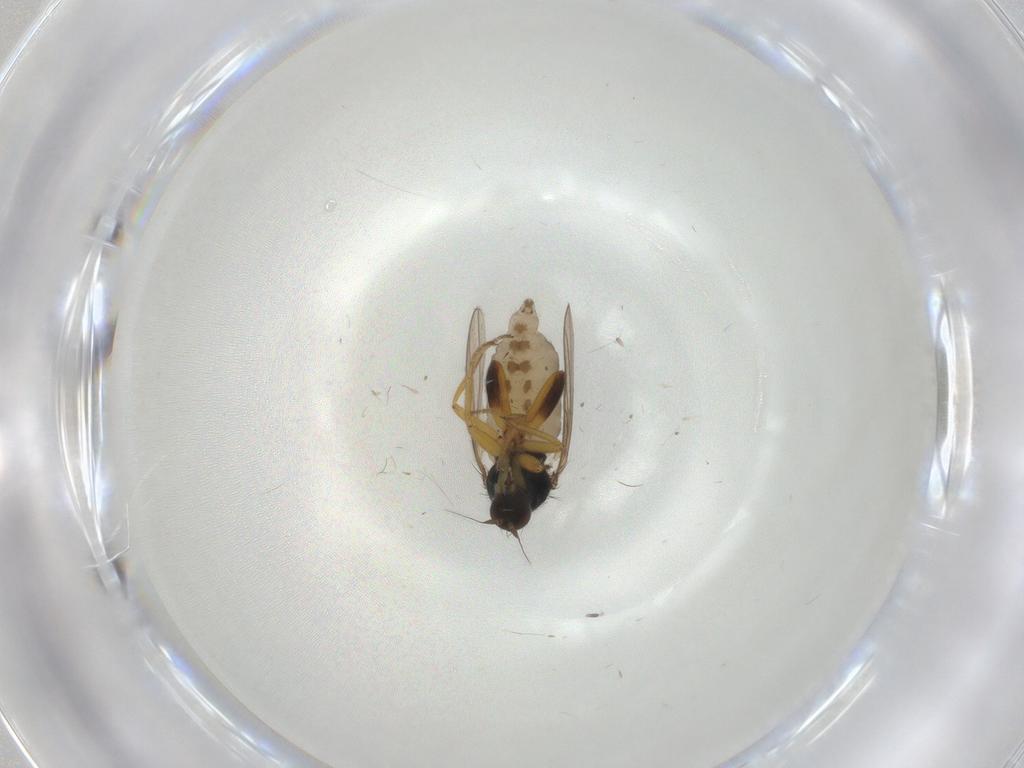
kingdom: Animalia
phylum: Arthropoda
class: Insecta
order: Diptera
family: Hybotidae
